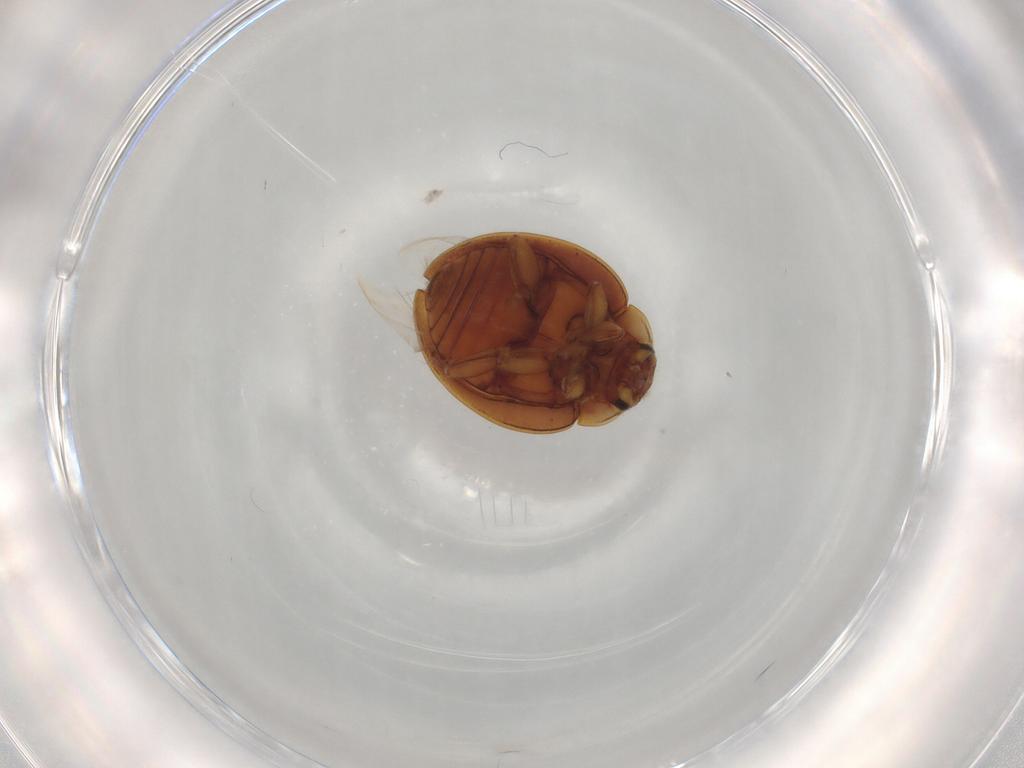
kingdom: Animalia
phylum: Arthropoda
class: Insecta
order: Coleoptera
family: Coccinellidae
